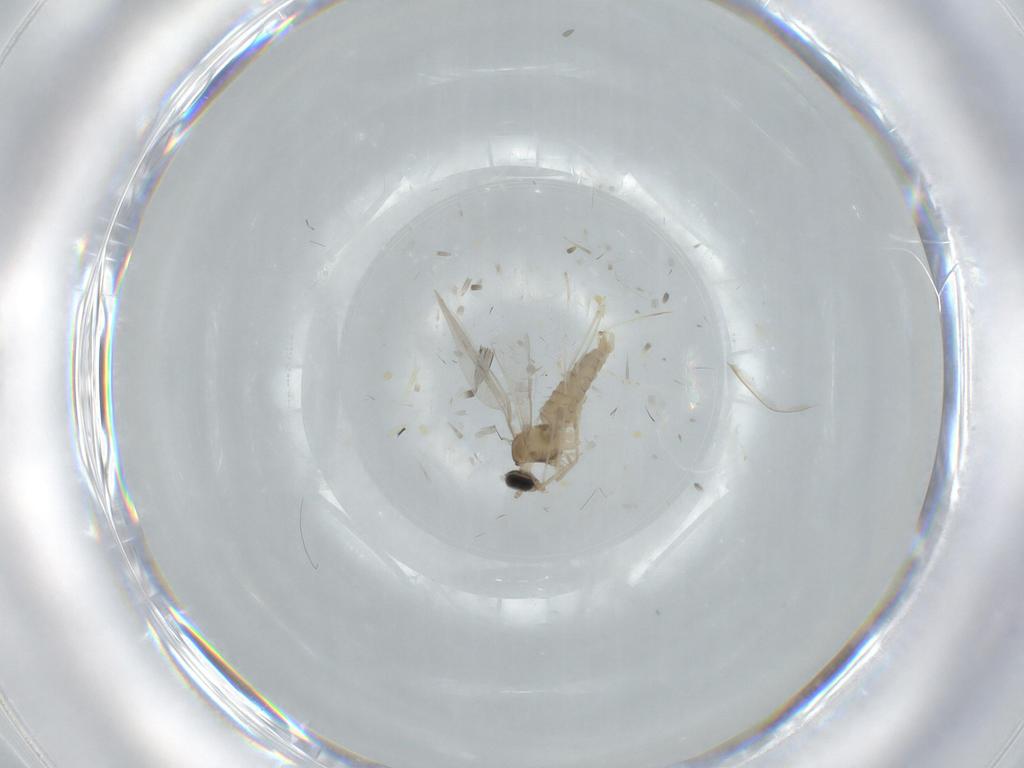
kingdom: Animalia
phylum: Arthropoda
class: Insecta
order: Diptera
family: Cecidomyiidae
